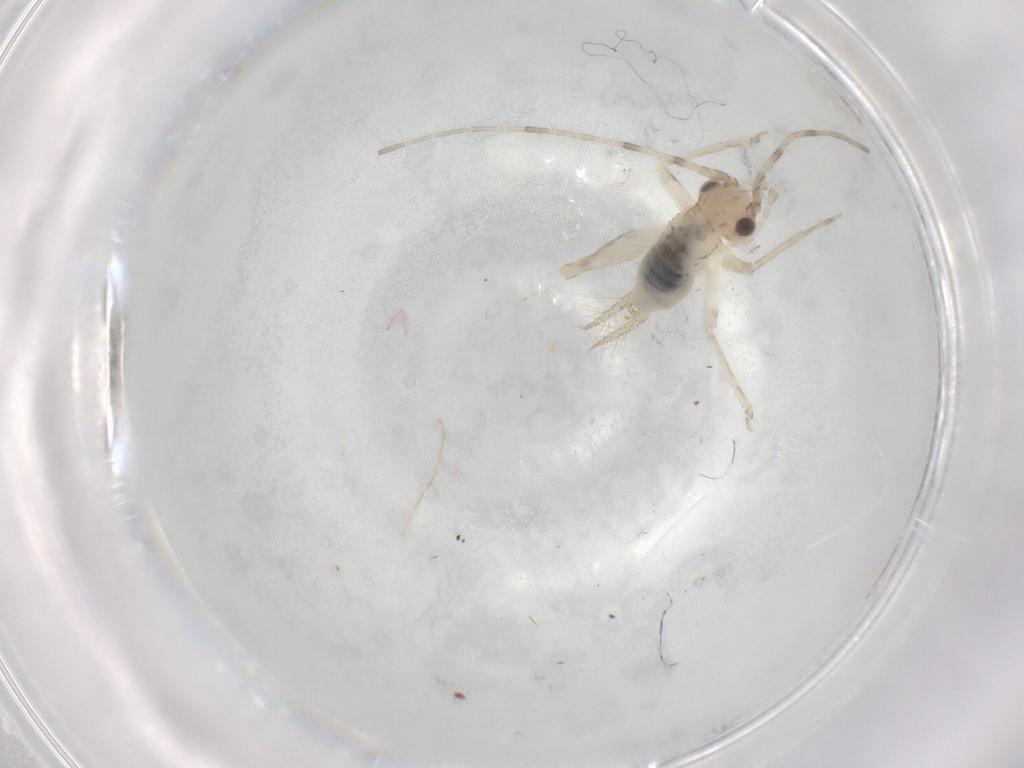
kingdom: Animalia
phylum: Arthropoda
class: Insecta
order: Orthoptera
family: Trigonidiidae
